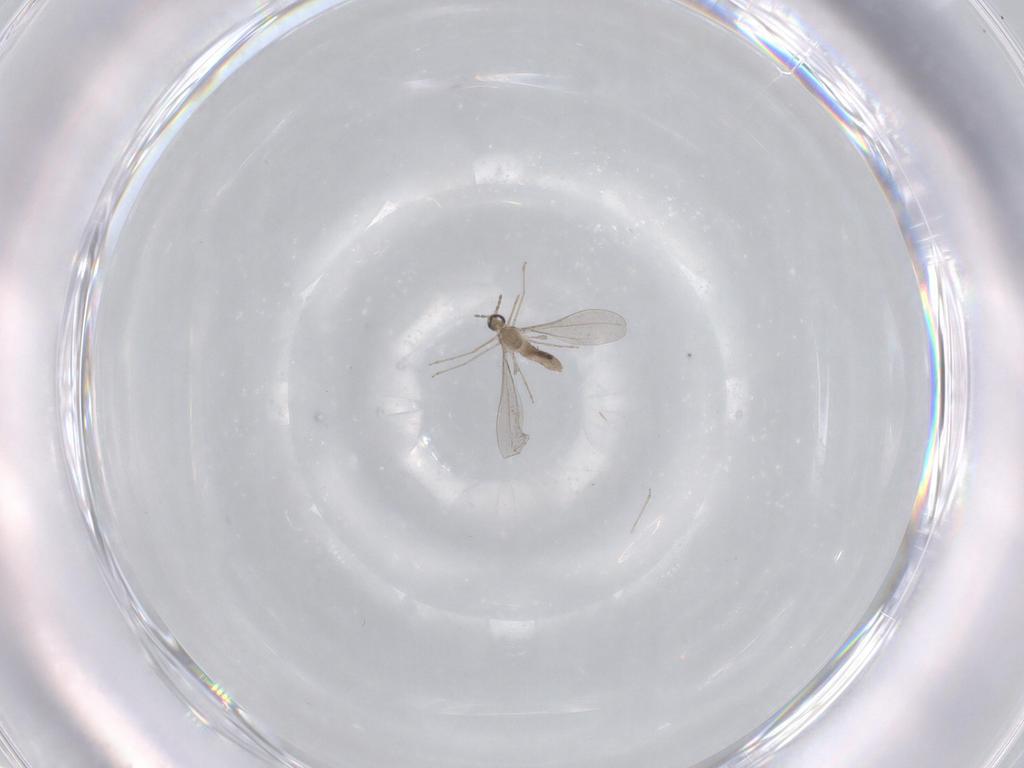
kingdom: Animalia
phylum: Arthropoda
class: Insecta
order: Diptera
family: Cecidomyiidae
